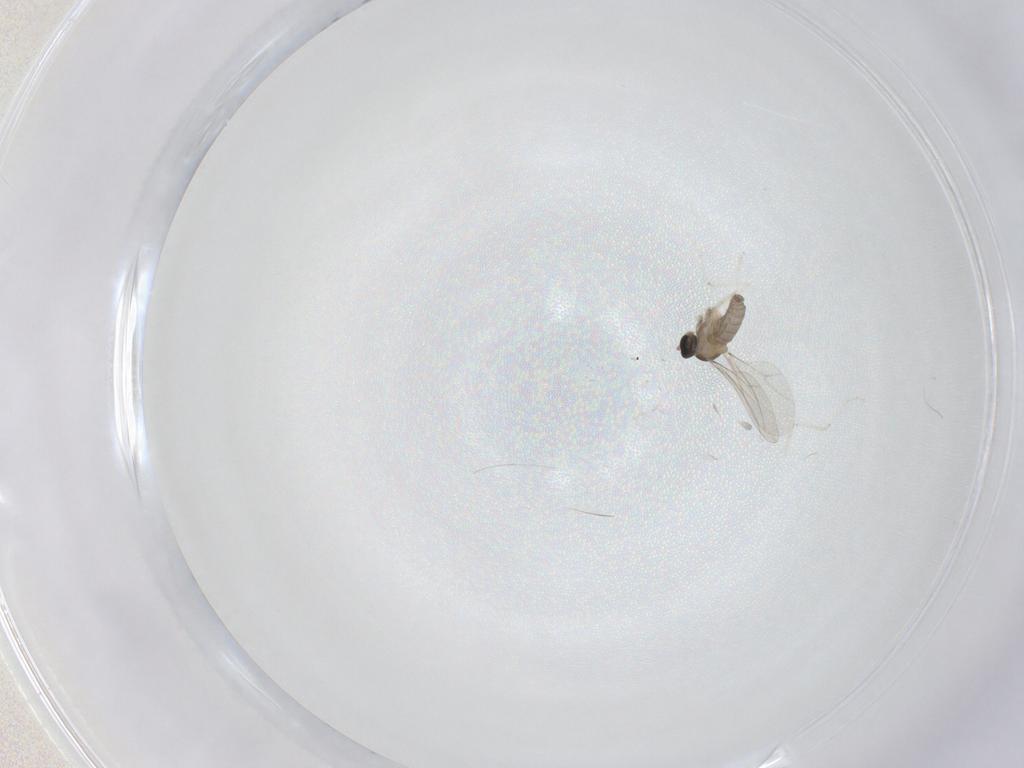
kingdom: Animalia
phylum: Arthropoda
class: Insecta
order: Diptera
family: Cecidomyiidae
